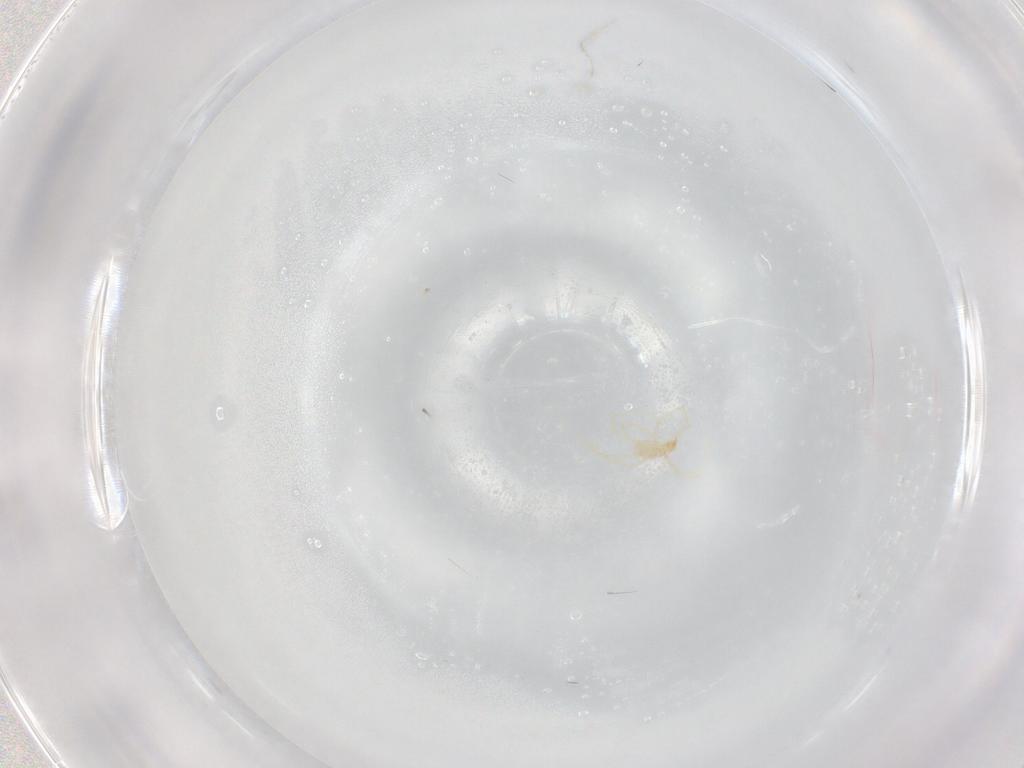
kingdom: Animalia
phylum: Arthropoda
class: Arachnida
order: Trombidiformes
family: Erythraeidae
